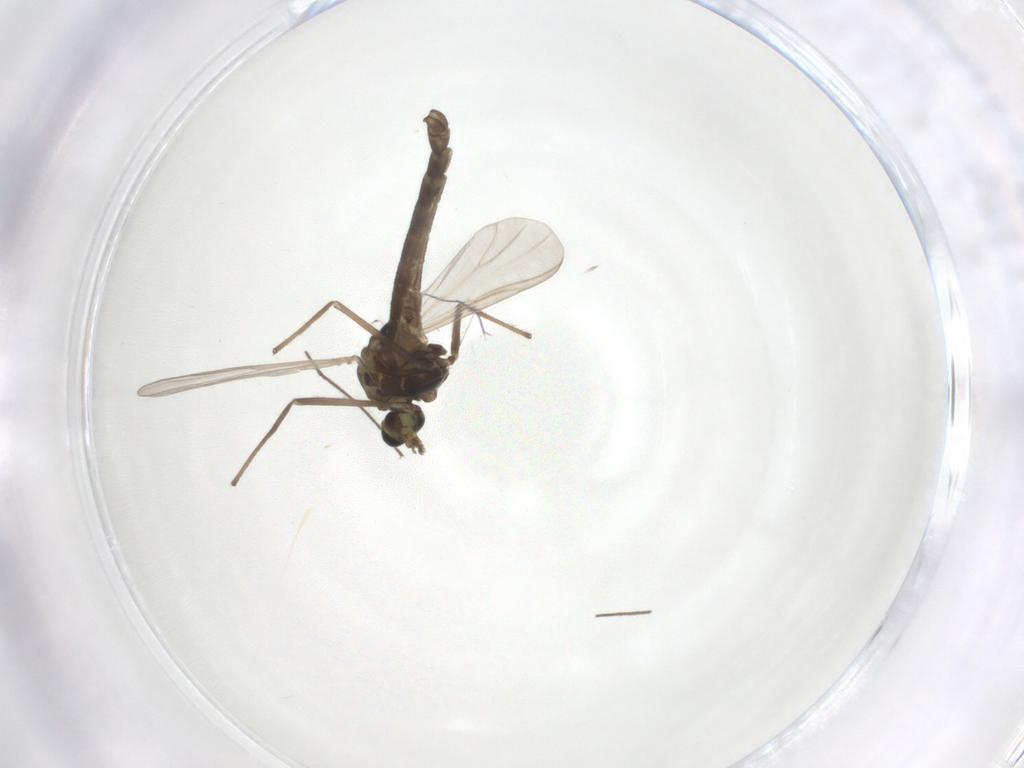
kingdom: Animalia
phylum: Arthropoda
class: Insecta
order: Diptera
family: Chironomidae
